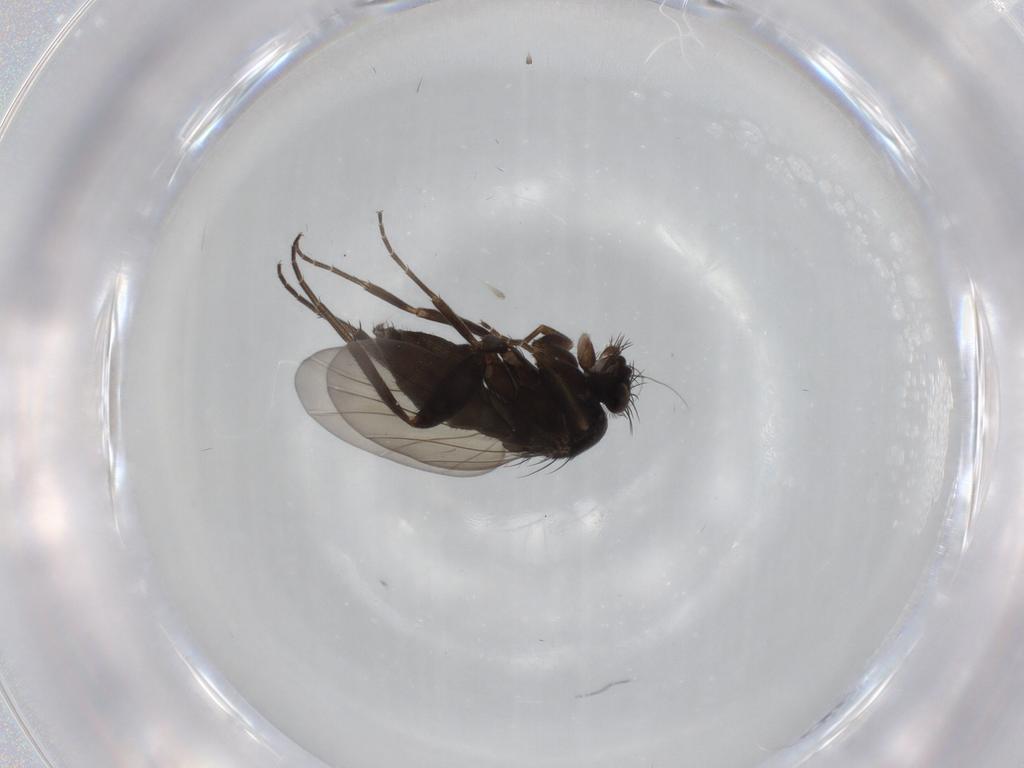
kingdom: Animalia
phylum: Arthropoda
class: Insecta
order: Diptera
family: Phoridae
